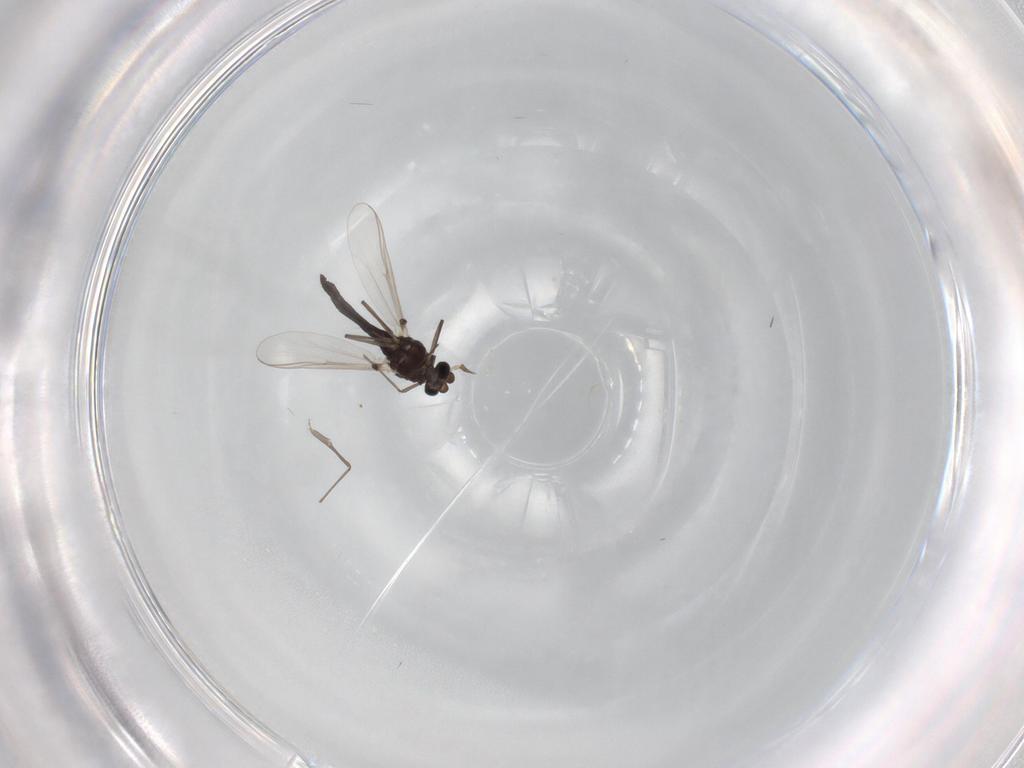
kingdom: Animalia
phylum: Arthropoda
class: Insecta
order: Diptera
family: Chironomidae
